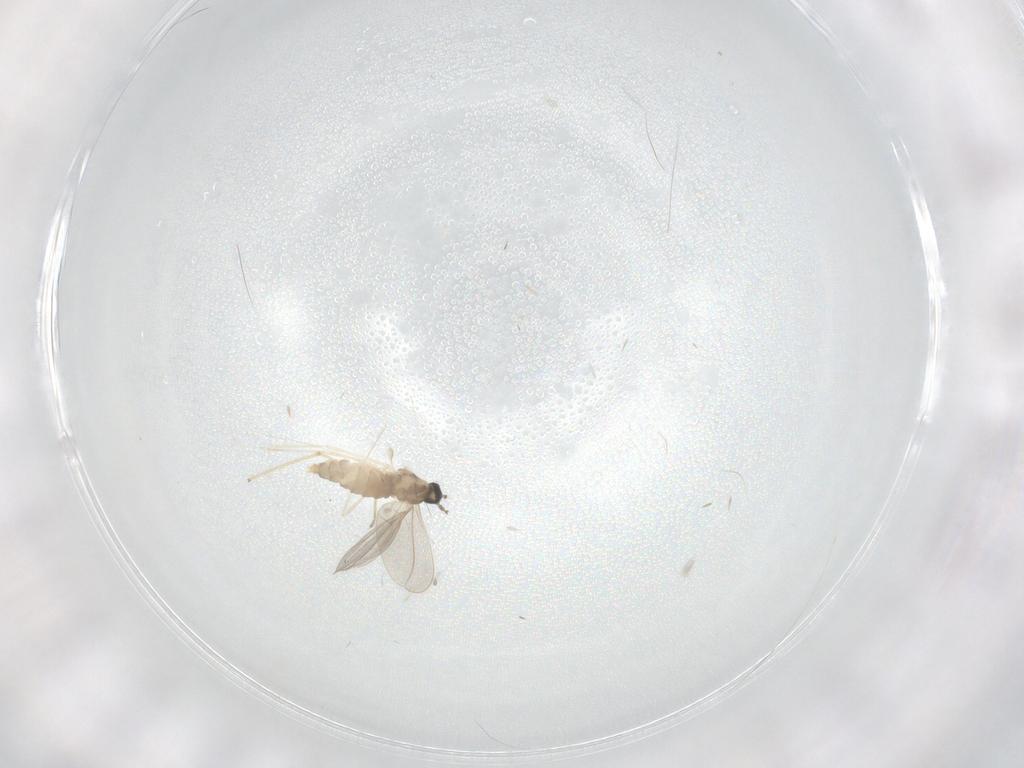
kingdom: Animalia
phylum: Arthropoda
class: Insecta
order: Diptera
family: Chironomidae
